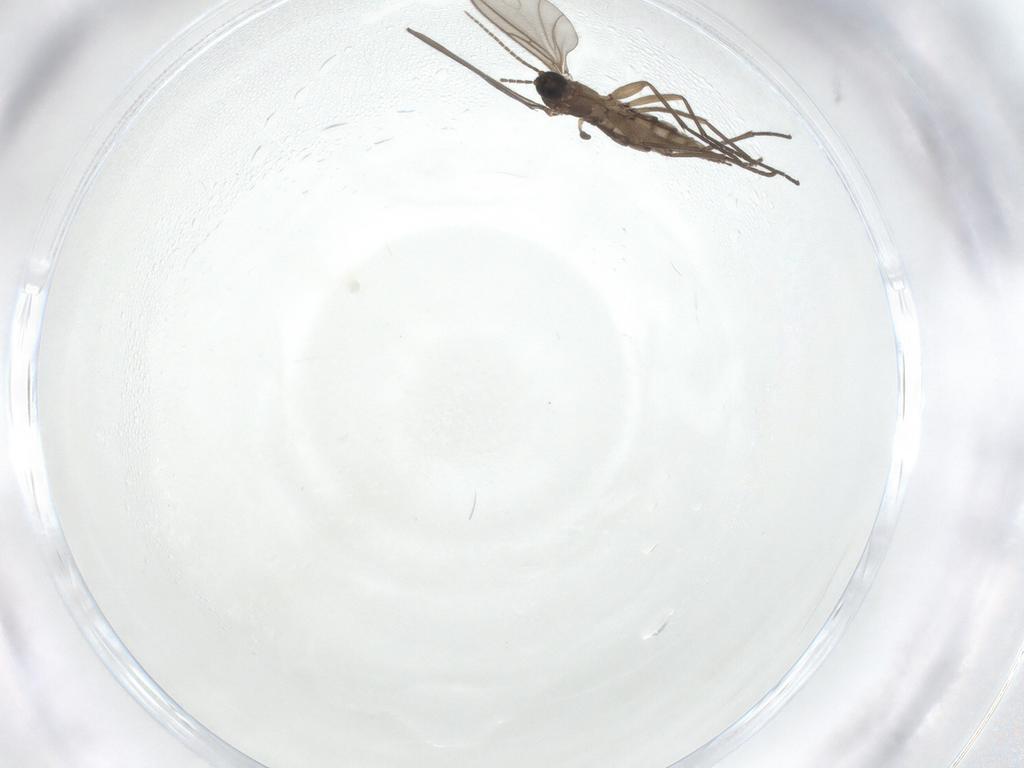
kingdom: Animalia
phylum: Arthropoda
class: Insecta
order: Diptera
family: Sciaridae
